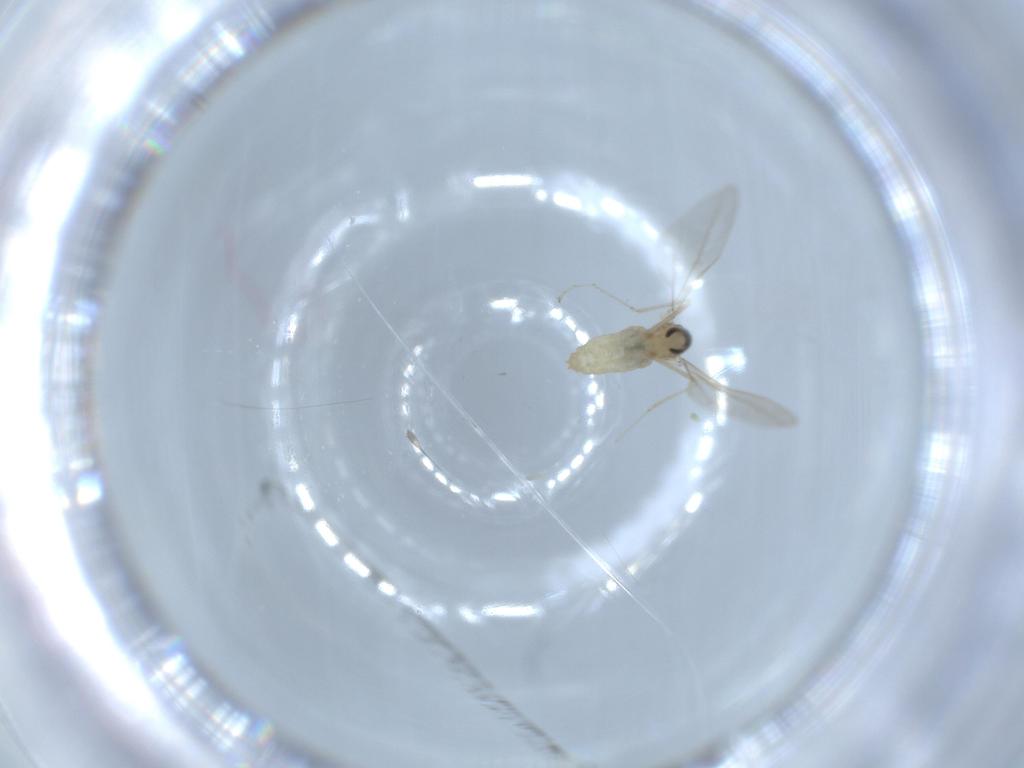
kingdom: Animalia
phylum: Arthropoda
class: Insecta
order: Diptera
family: Cecidomyiidae
